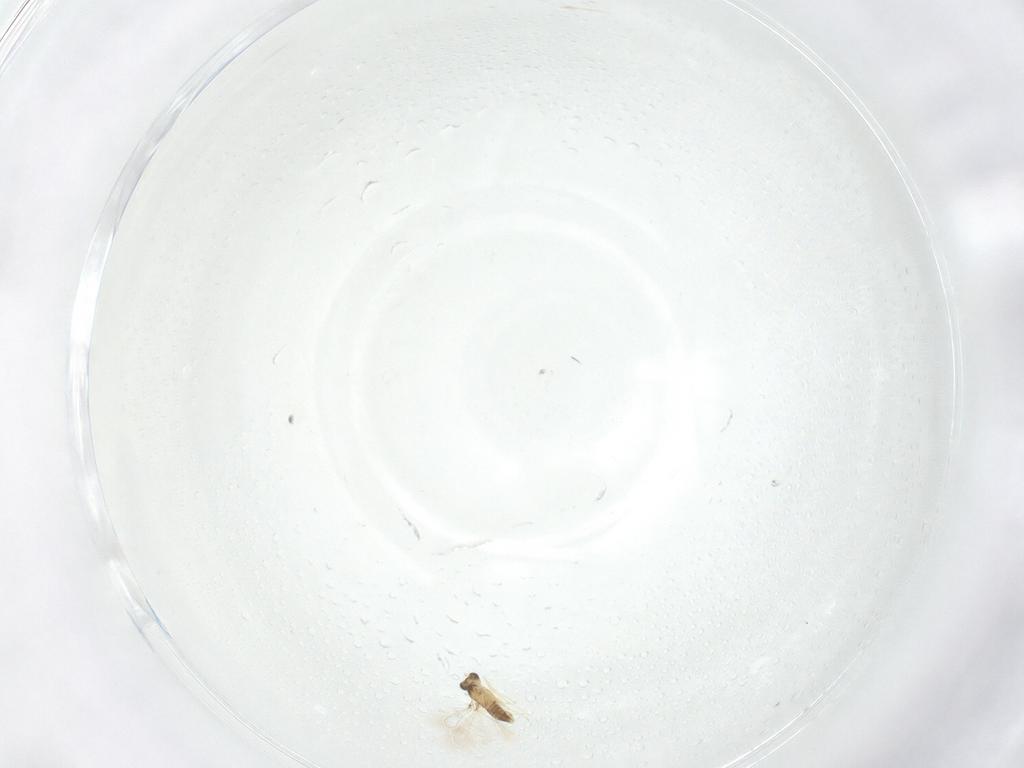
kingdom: Animalia
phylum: Arthropoda
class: Insecta
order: Hymenoptera
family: Mymaridae
